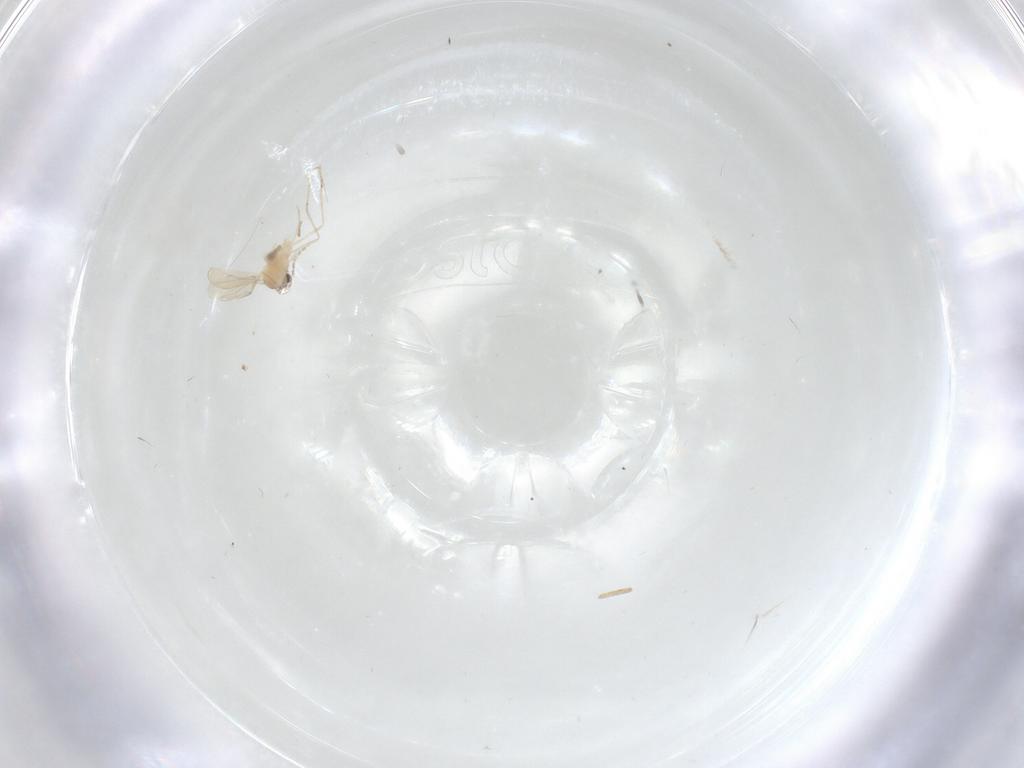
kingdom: Animalia
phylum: Arthropoda
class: Insecta
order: Diptera
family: Cecidomyiidae
